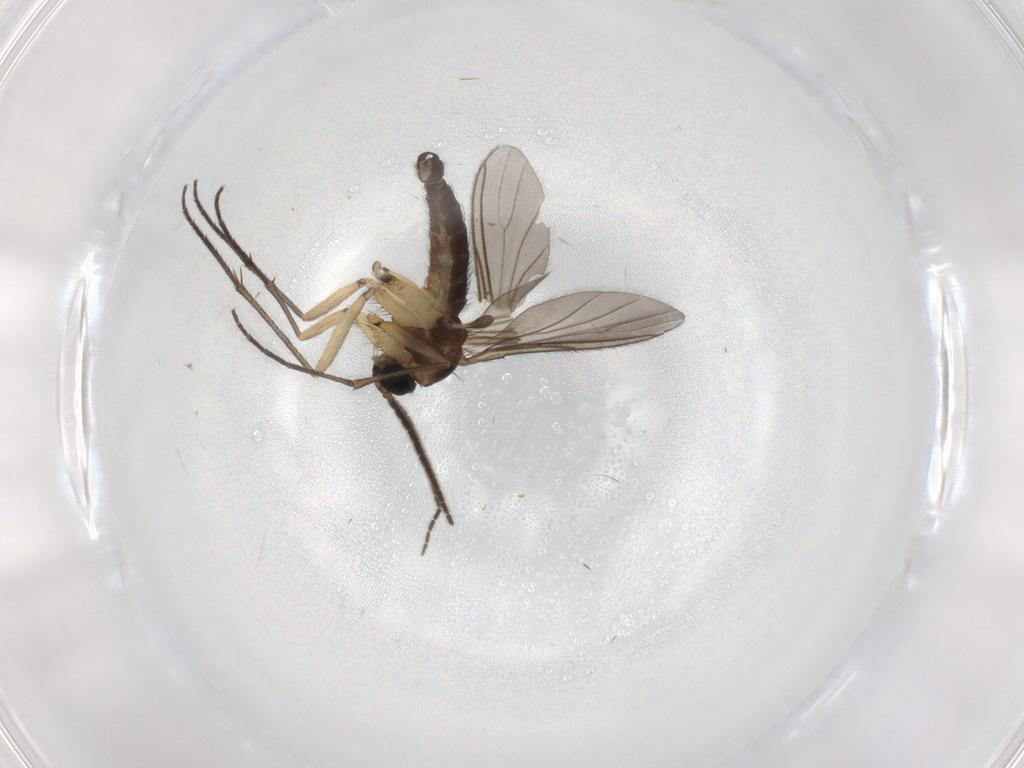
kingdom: Animalia
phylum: Arthropoda
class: Insecta
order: Diptera
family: Sciaridae
